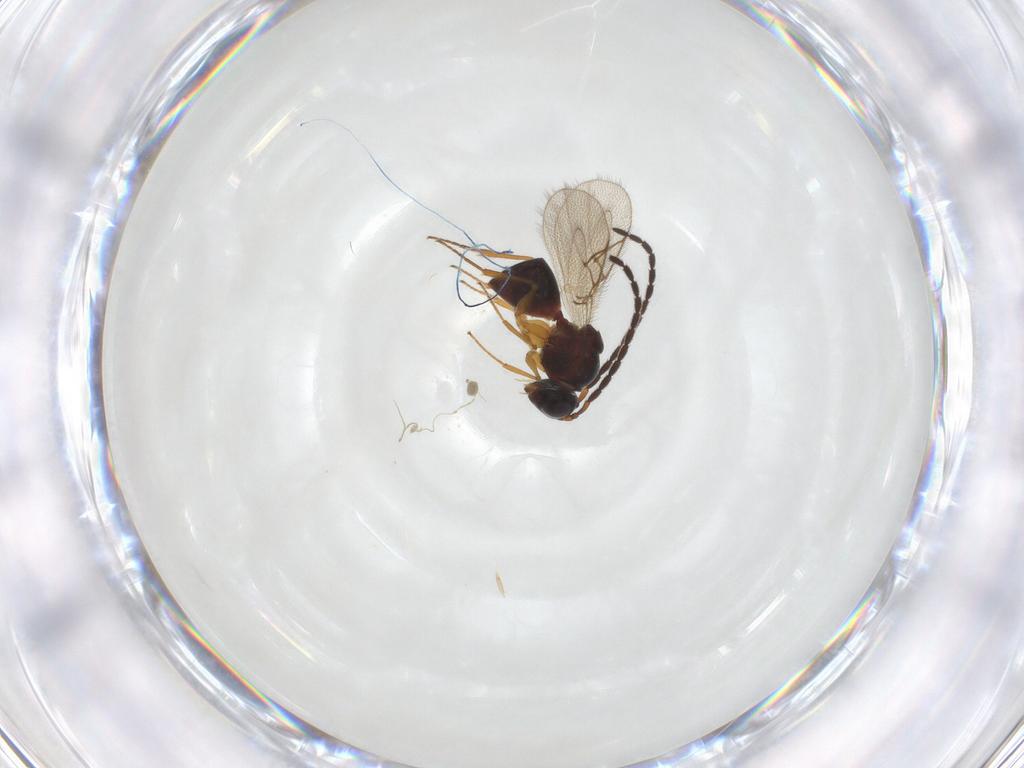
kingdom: Animalia
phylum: Arthropoda
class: Insecta
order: Hymenoptera
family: Scelionidae
